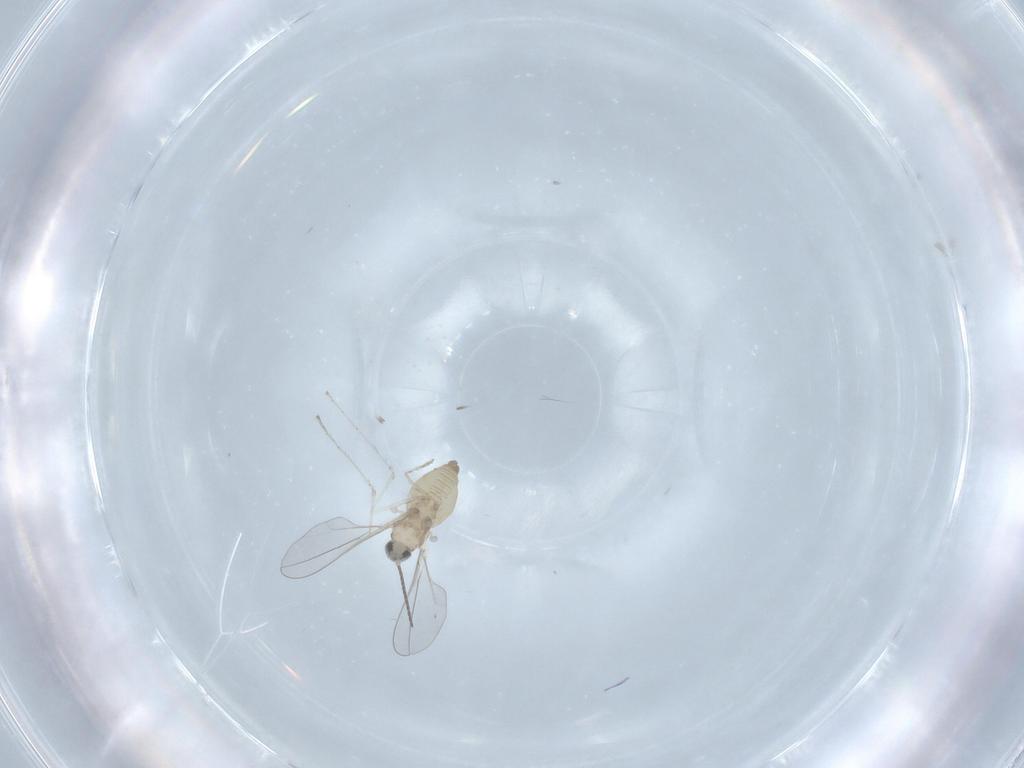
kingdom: Animalia
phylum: Arthropoda
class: Insecta
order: Diptera
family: Cecidomyiidae
